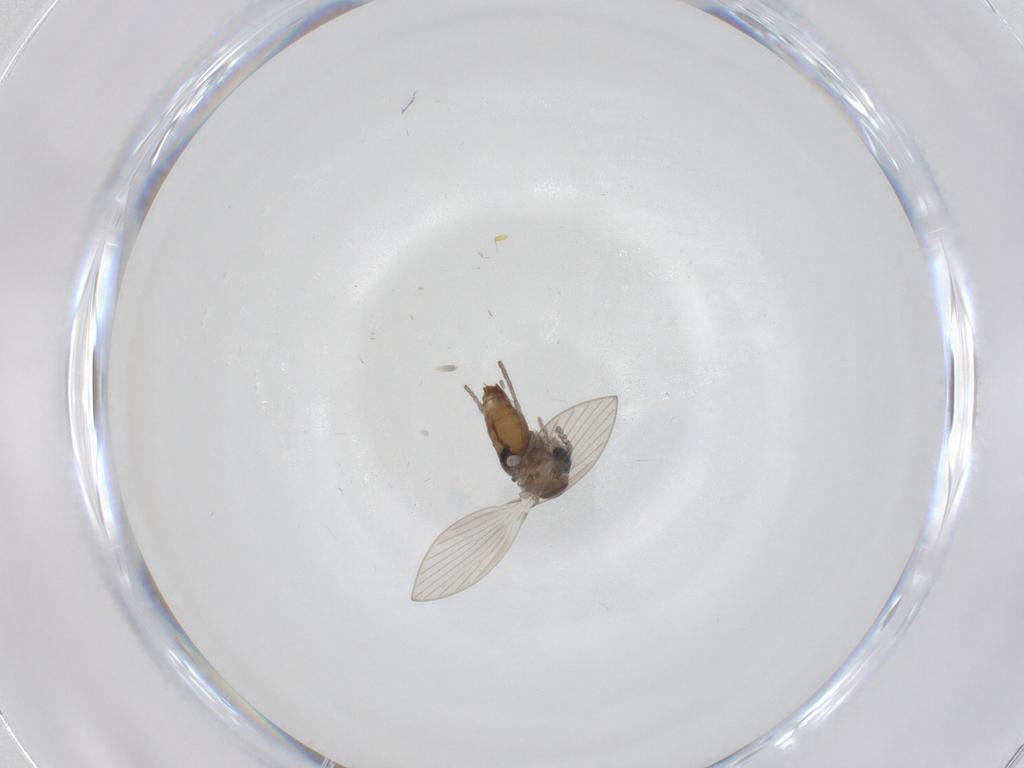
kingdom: Animalia
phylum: Arthropoda
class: Insecta
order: Diptera
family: Psychodidae
